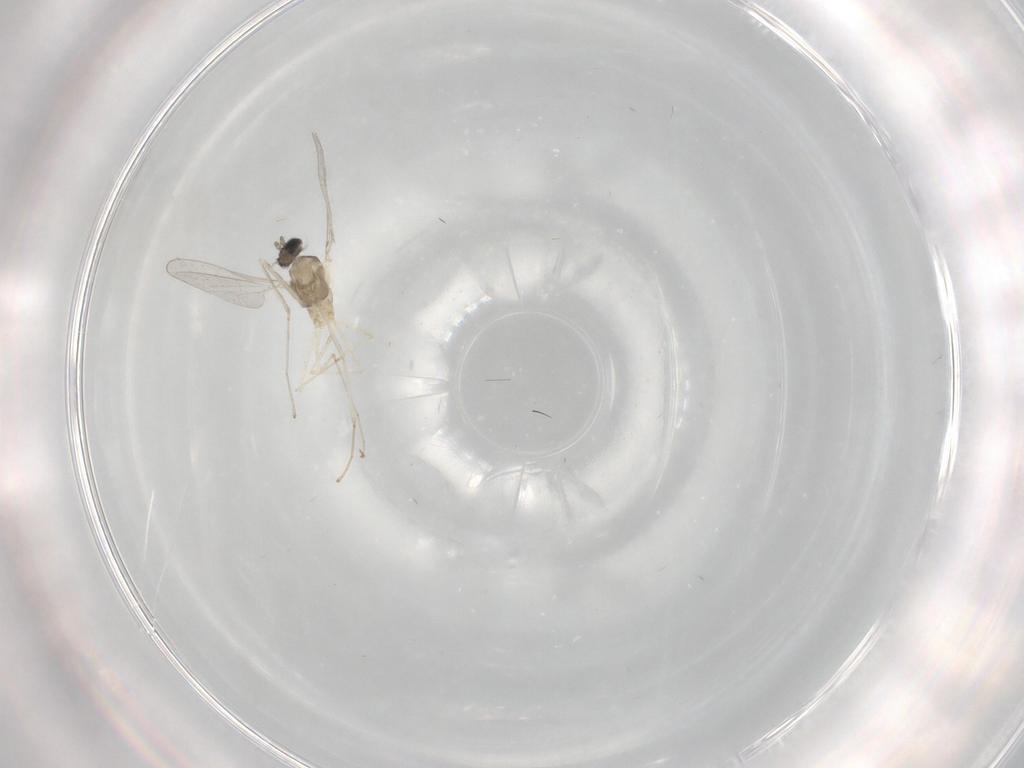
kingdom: Animalia
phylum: Arthropoda
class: Insecta
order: Diptera
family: Cecidomyiidae
